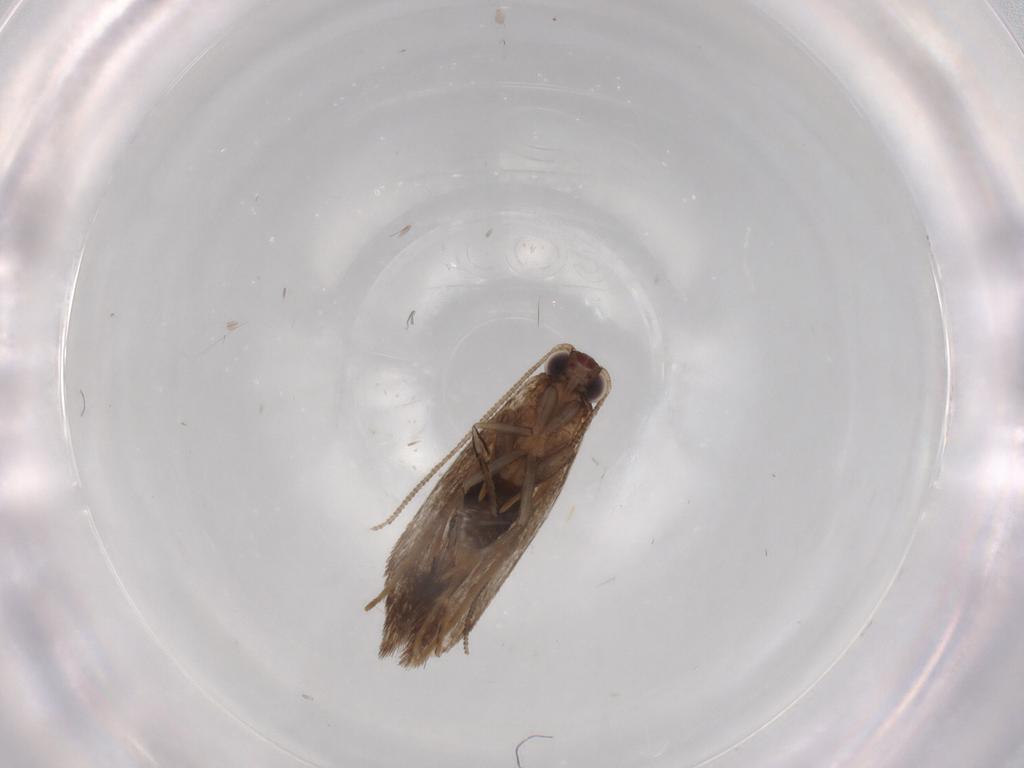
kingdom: Animalia
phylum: Arthropoda
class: Insecta
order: Lepidoptera
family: Tineidae
